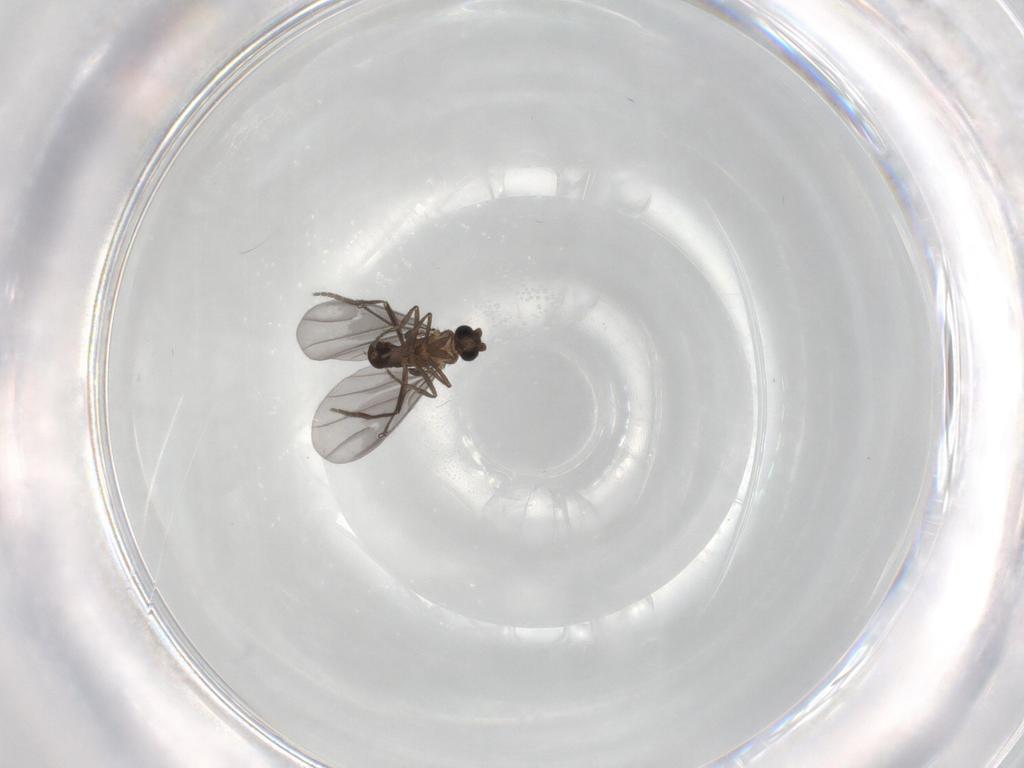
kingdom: Animalia
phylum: Arthropoda
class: Insecta
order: Diptera
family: Phoridae
